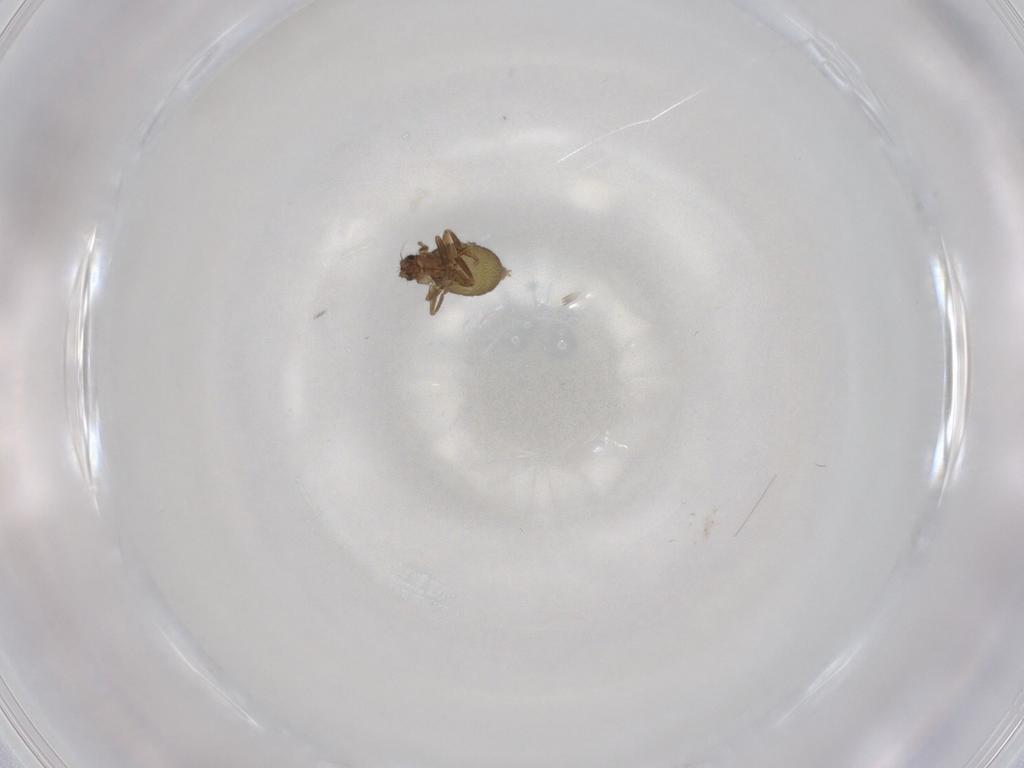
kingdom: Animalia
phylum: Arthropoda
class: Insecta
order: Diptera
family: Phoridae
